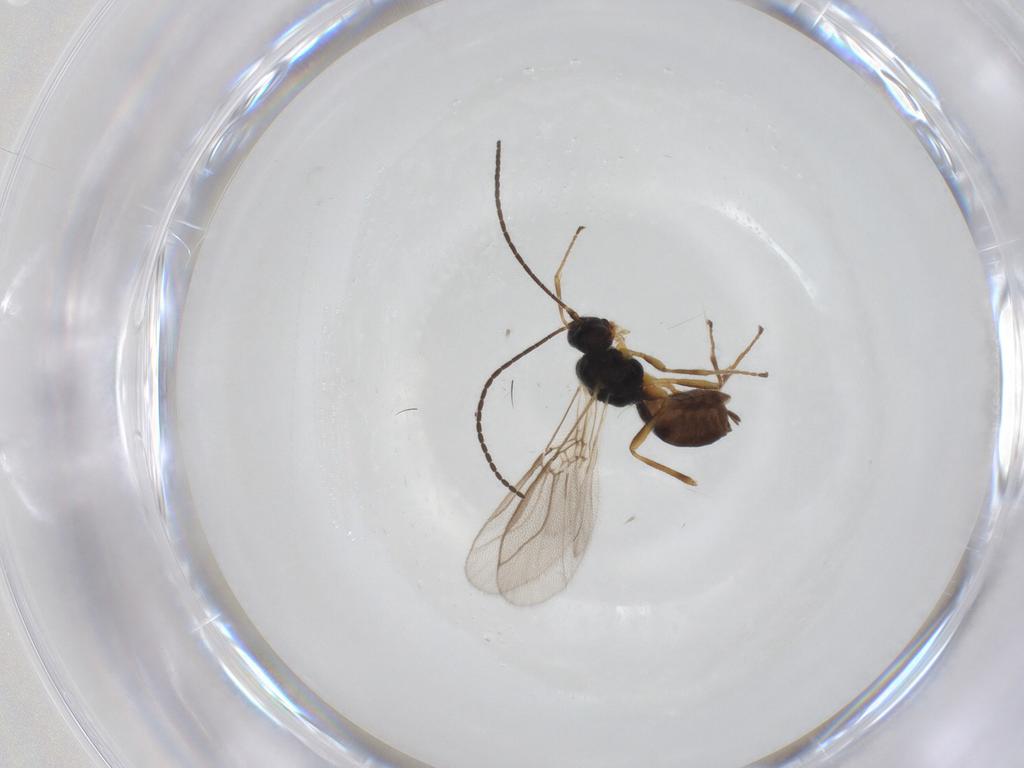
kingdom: Animalia
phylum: Arthropoda
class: Insecta
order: Hymenoptera
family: Braconidae
